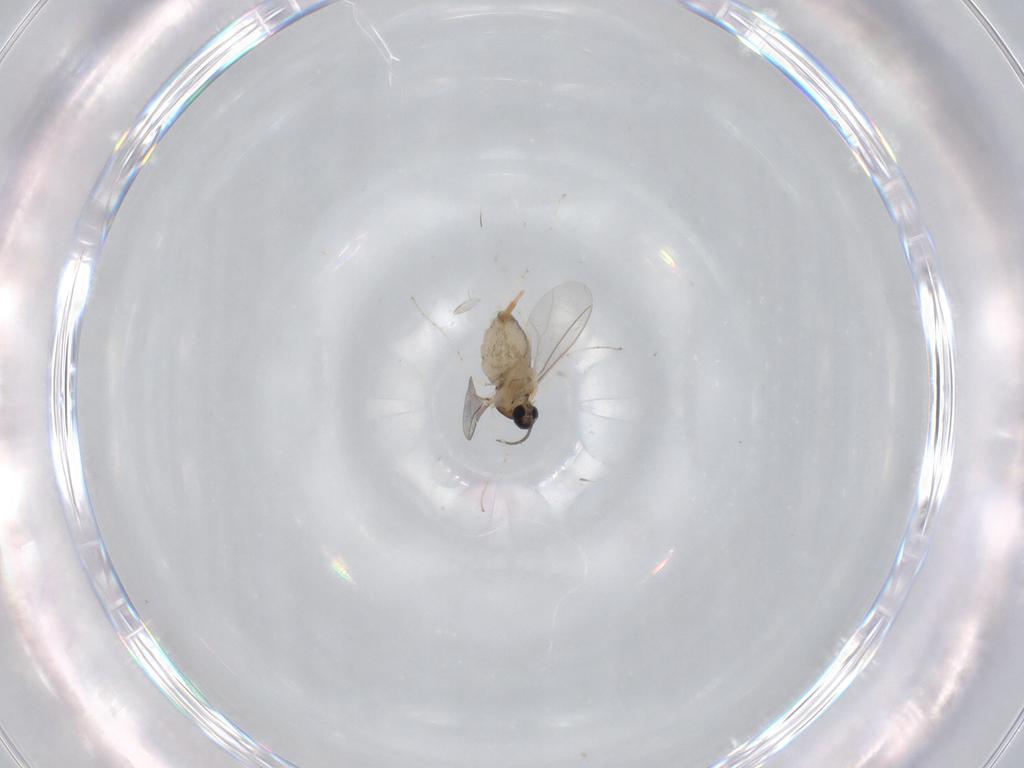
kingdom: Animalia
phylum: Arthropoda
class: Insecta
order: Diptera
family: Cecidomyiidae
